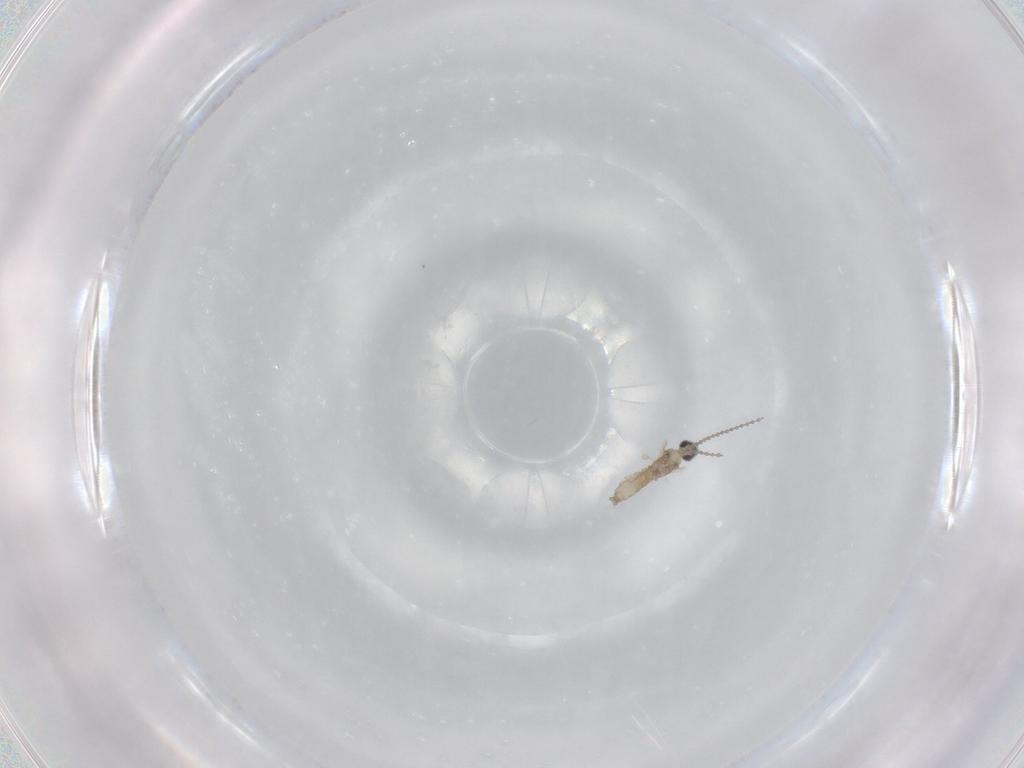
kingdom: Animalia
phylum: Arthropoda
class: Insecta
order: Diptera
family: Cecidomyiidae
